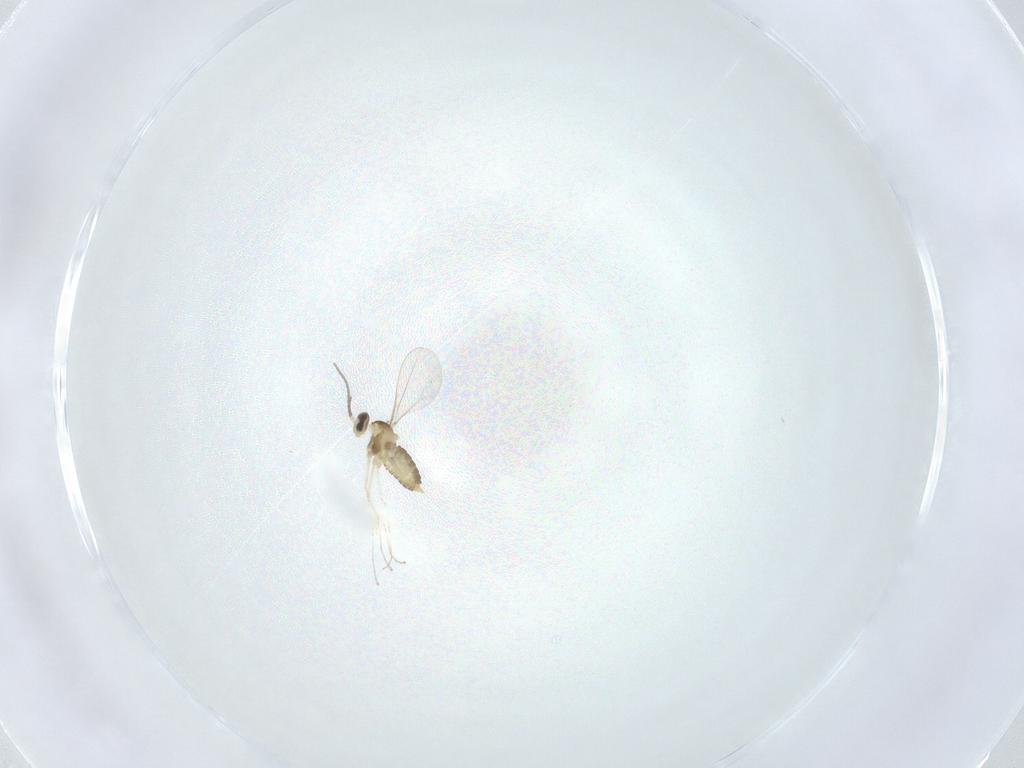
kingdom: Animalia
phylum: Arthropoda
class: Insecta
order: Diptera
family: Cecidomyiidae
